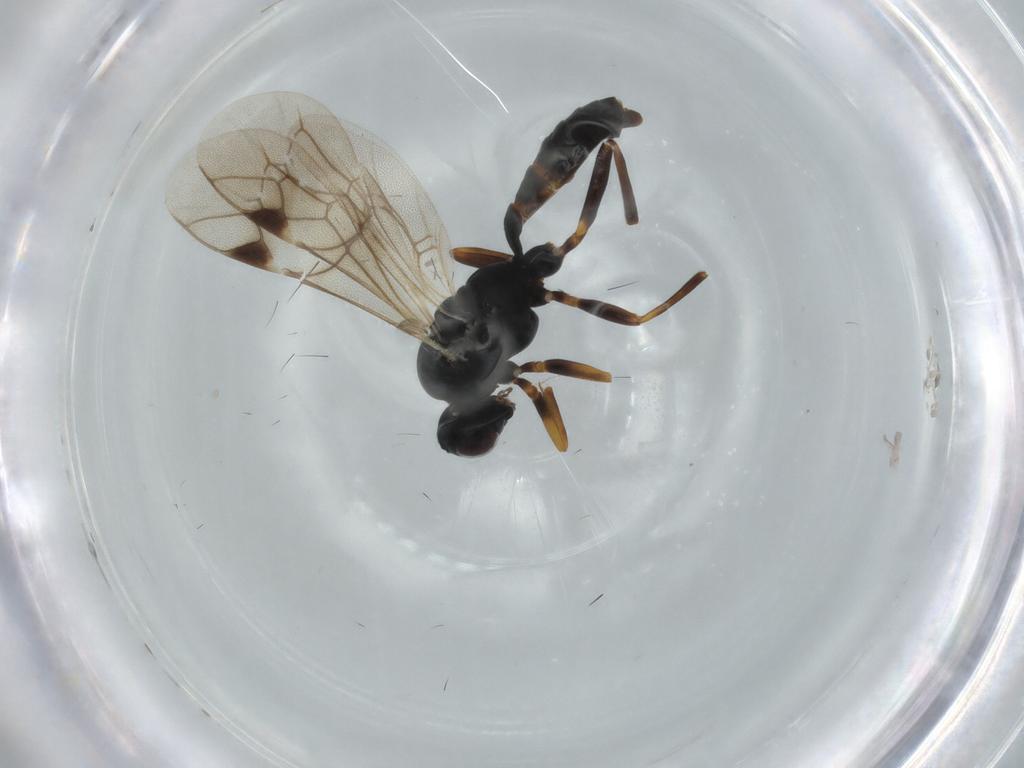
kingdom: Animalia
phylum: Arthropoda
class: Insecta
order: Hymenoptera
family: Ichneumonidae
